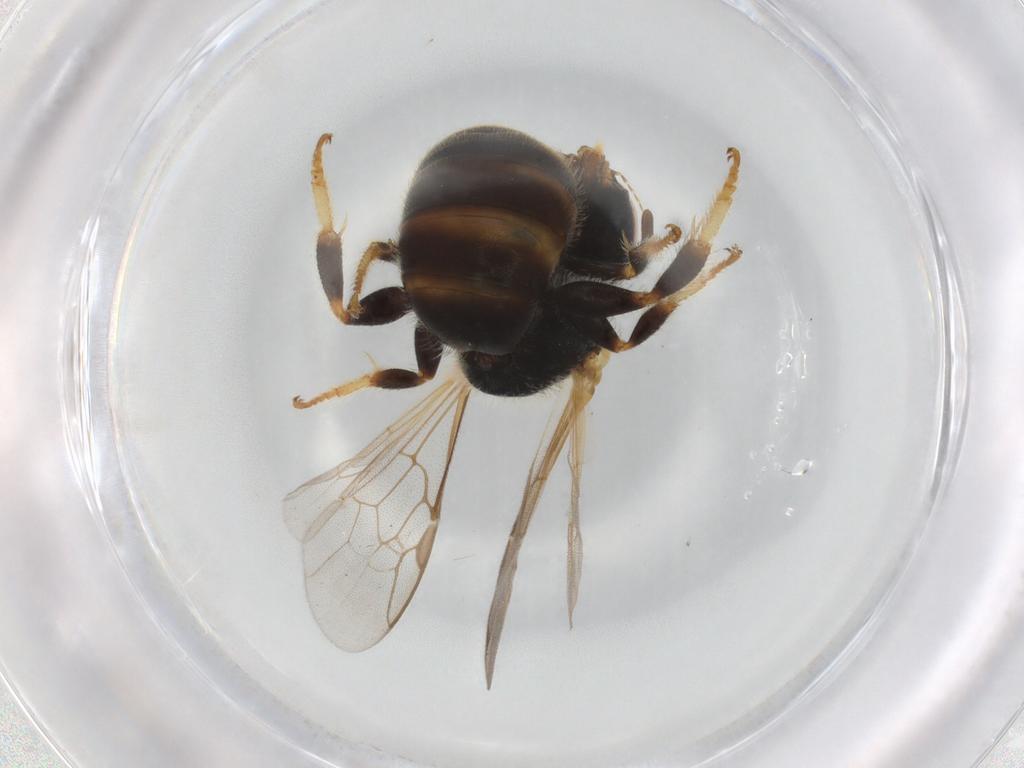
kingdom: Animalia
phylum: Arthropoda
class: Insecta
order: Hymenoptera
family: Halictidae
